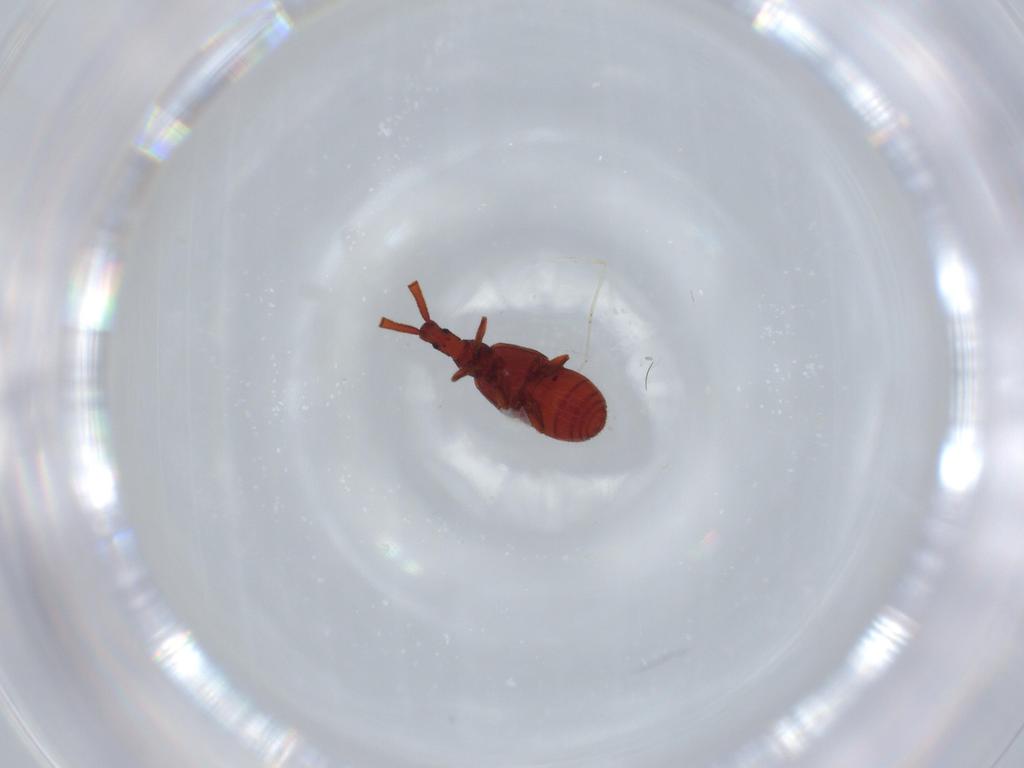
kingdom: Animalia
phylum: Arthropoda
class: Insecta
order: Coleoptera
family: Staphylinidae
